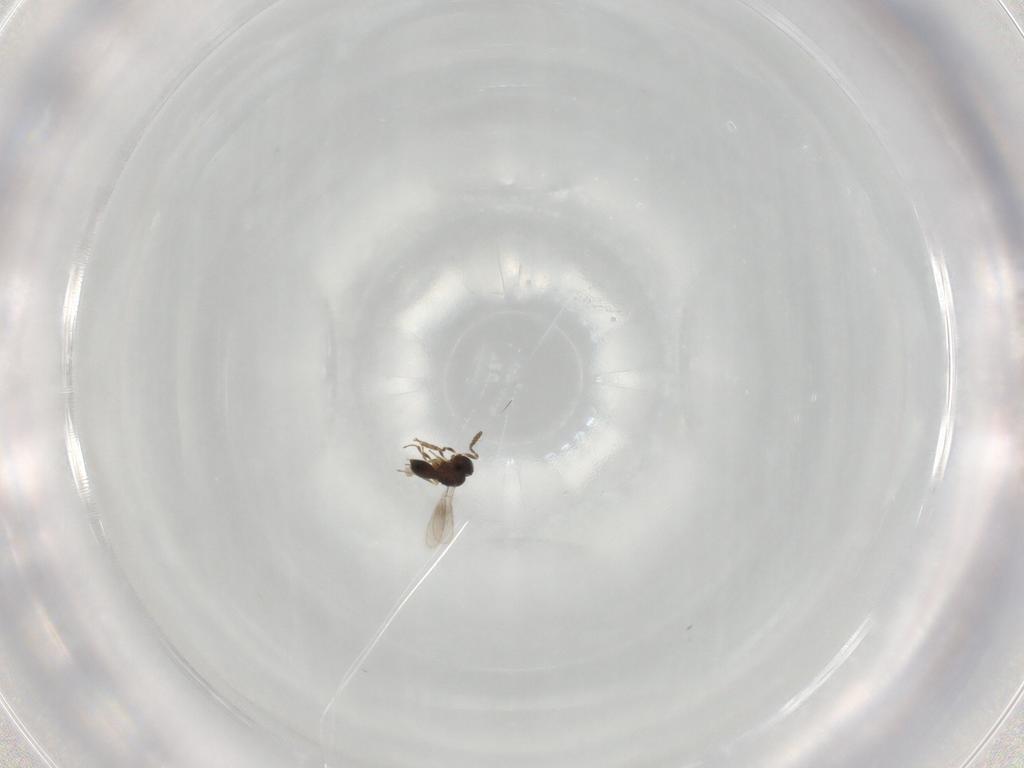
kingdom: Animalia
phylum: Arthropoda
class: Insecta
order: Hymenoptera
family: Scelionidae
